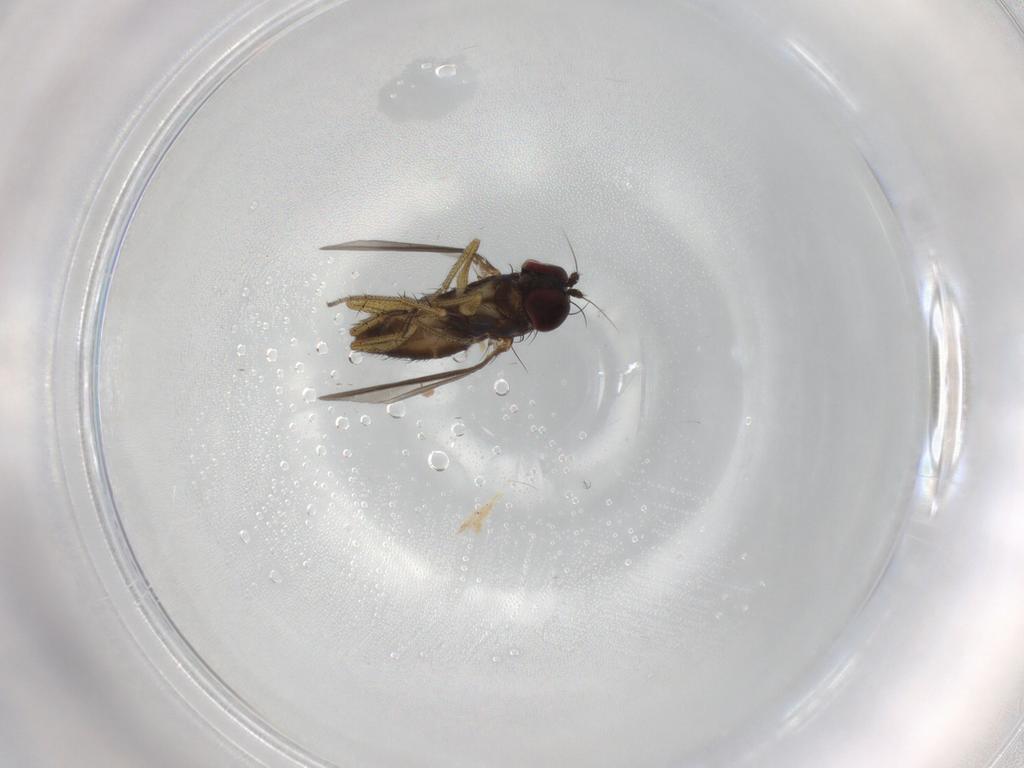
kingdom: Animalia
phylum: Arthropoda
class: Insecta
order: Diptera
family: Dolichopodidae
